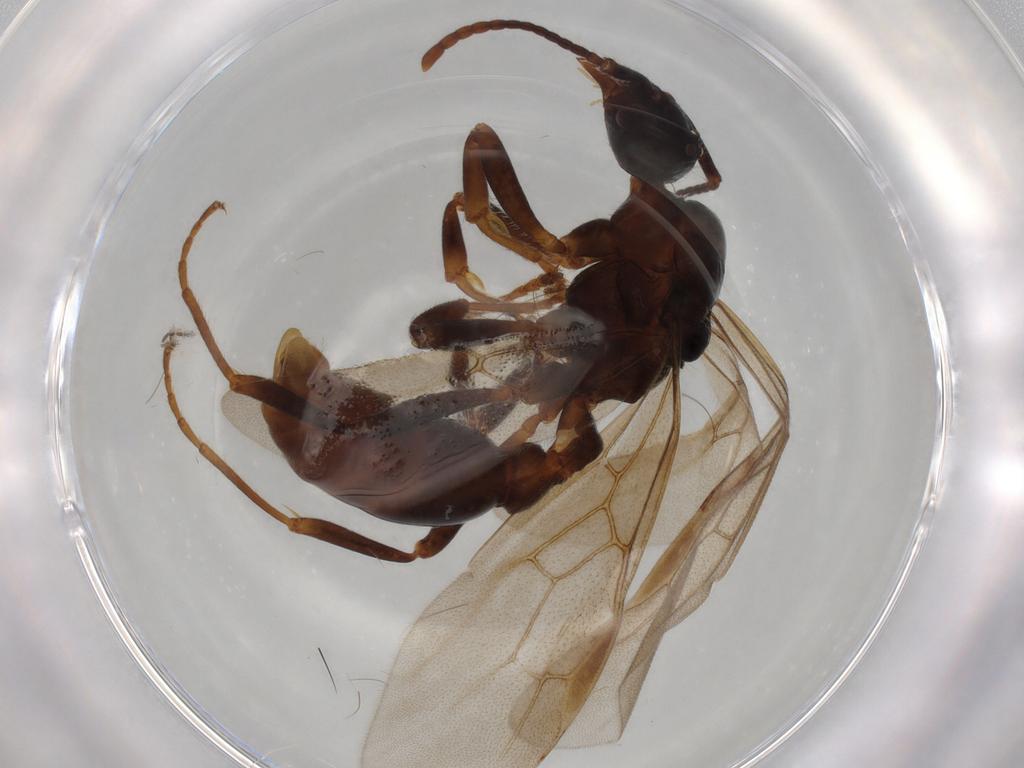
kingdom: Animalia
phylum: Arthropoda
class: Insecta
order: Hymenoptera
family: Formicidae
